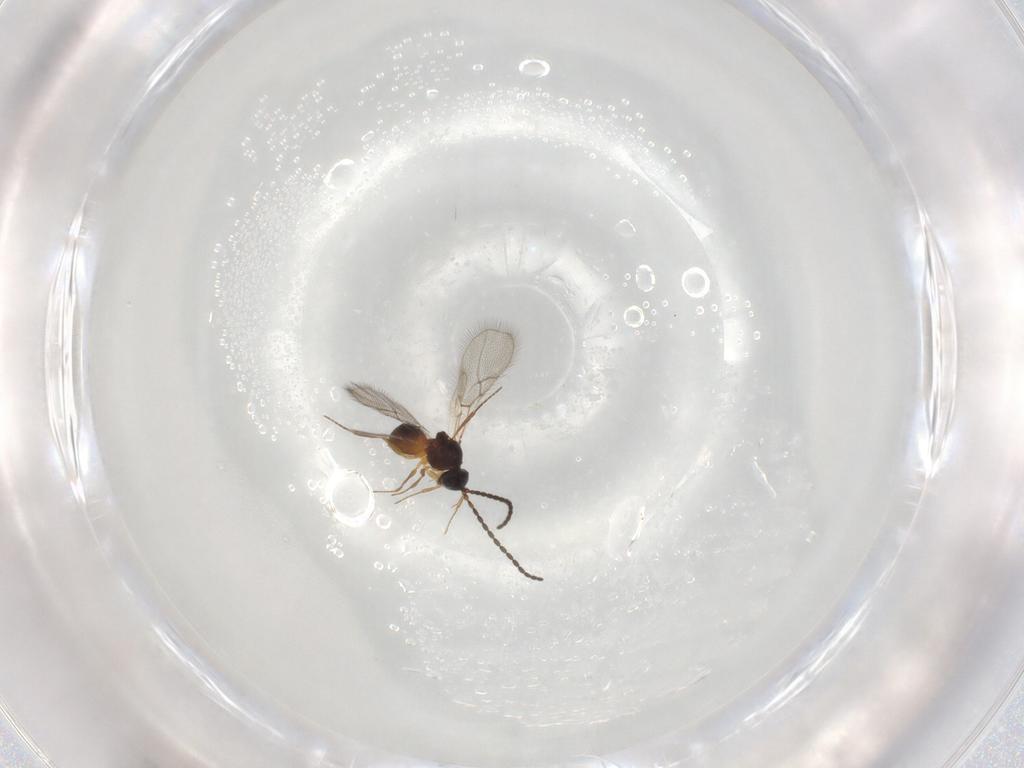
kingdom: Animalia
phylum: Arthropoda
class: Insecta
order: Hymenoptera
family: Figitidae
